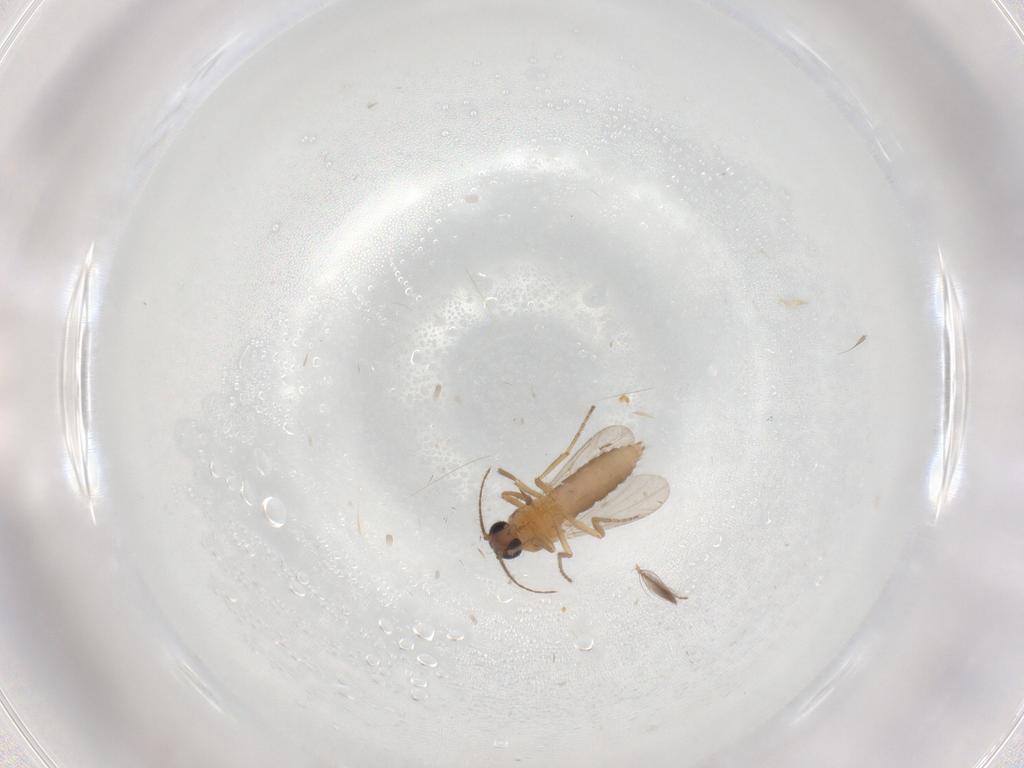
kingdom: Animalia
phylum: Arthropoda
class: Insecta
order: Diptera
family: Ceratopogonidae
